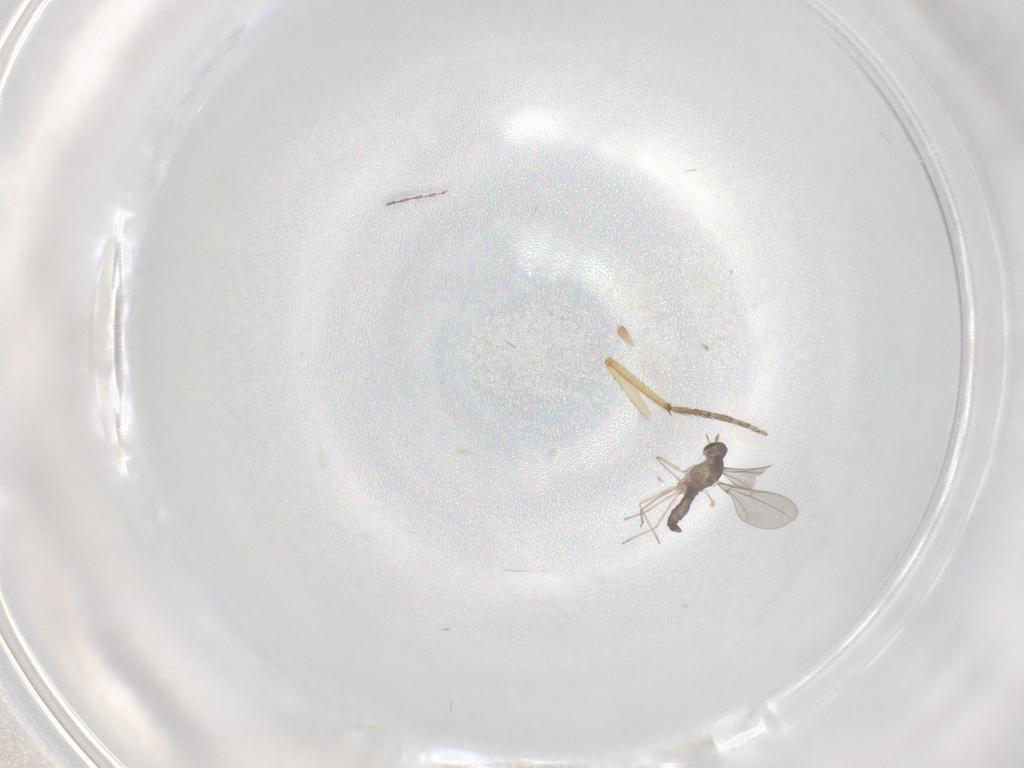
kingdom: Animalia
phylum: Arthropoda
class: Insecta
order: Diptera
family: Cecidomyiidae
